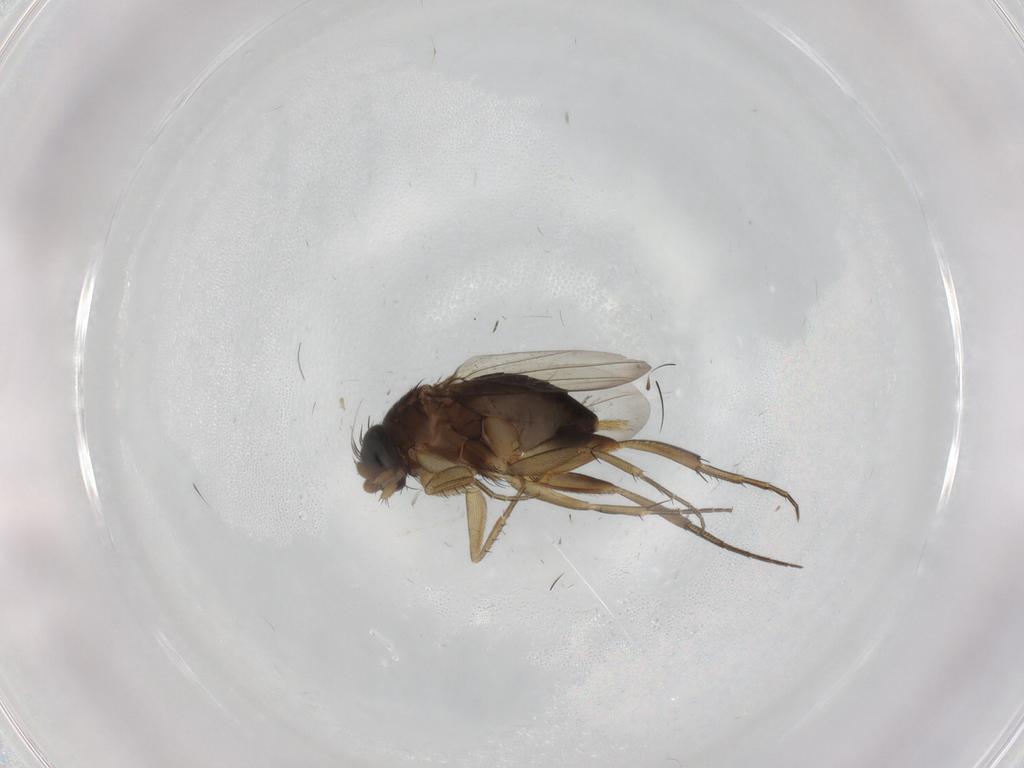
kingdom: Animalia
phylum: Arthropoda
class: Insecta
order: Diptera
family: Phoridae
